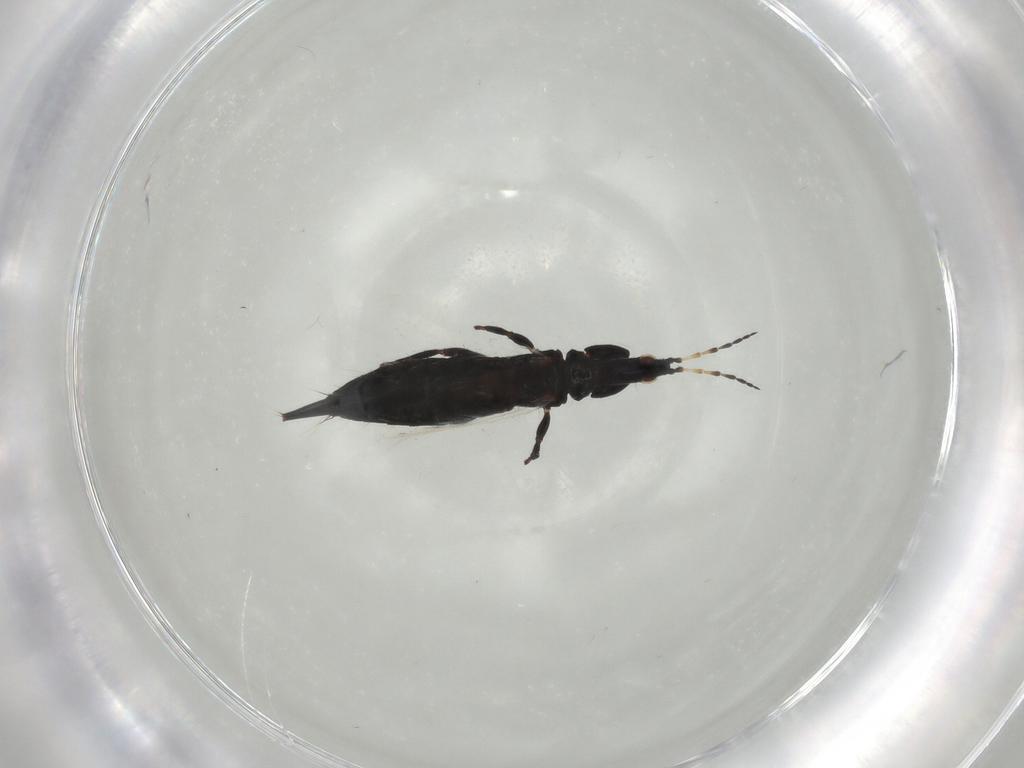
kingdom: Animalia
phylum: Arthropoda
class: Insecta
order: Thysanoptera
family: Phlaeothripidae
